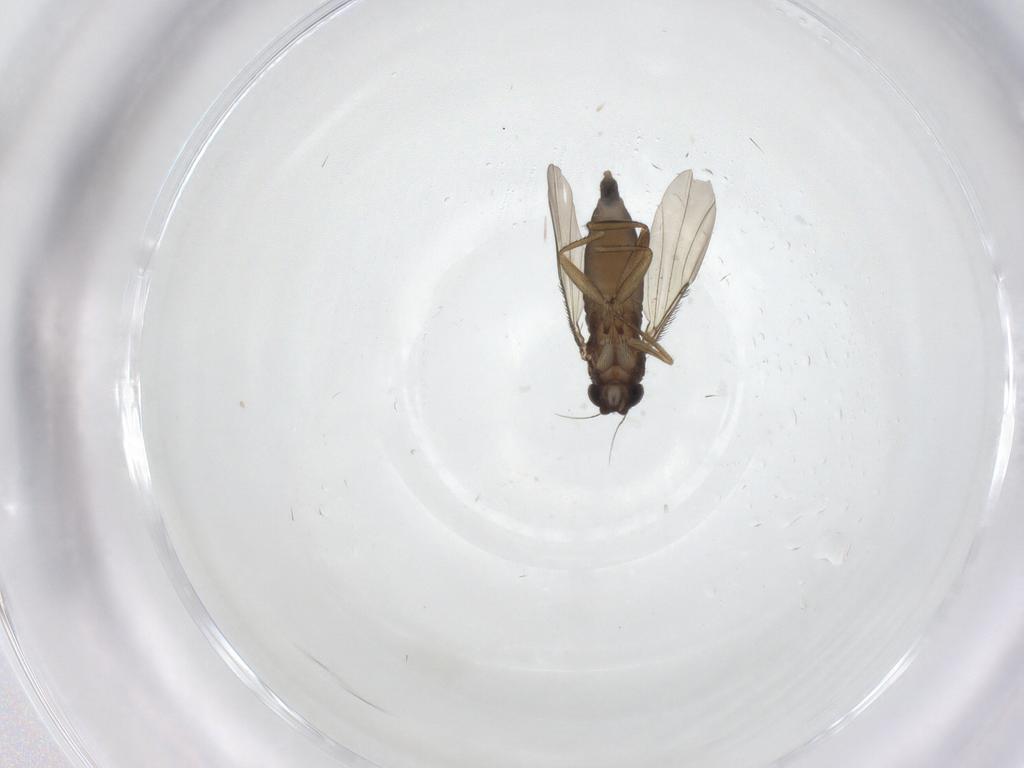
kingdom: Animalia
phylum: Arthropoda
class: Insecta
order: Diptera
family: Phoridae
